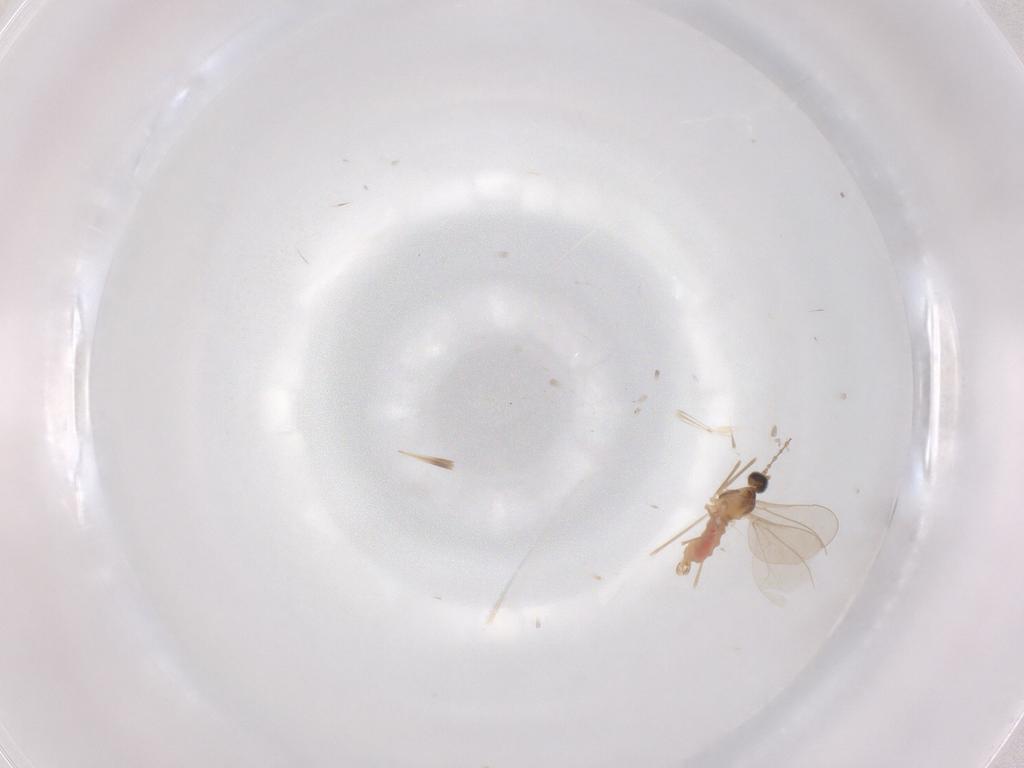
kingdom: Animalia
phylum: Arthropoda
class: Insecta
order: Diptera
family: Cecidomyiidae
